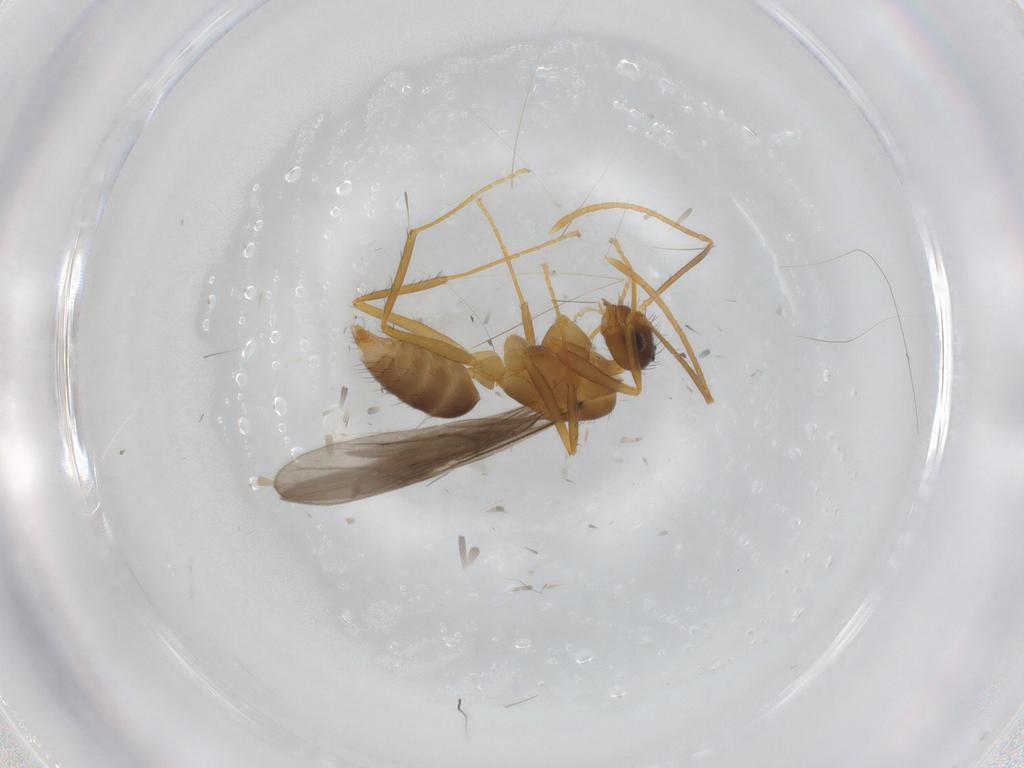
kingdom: Animalia
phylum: Arthropoda
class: Insecta
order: Hymenoptera
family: Formicidae
